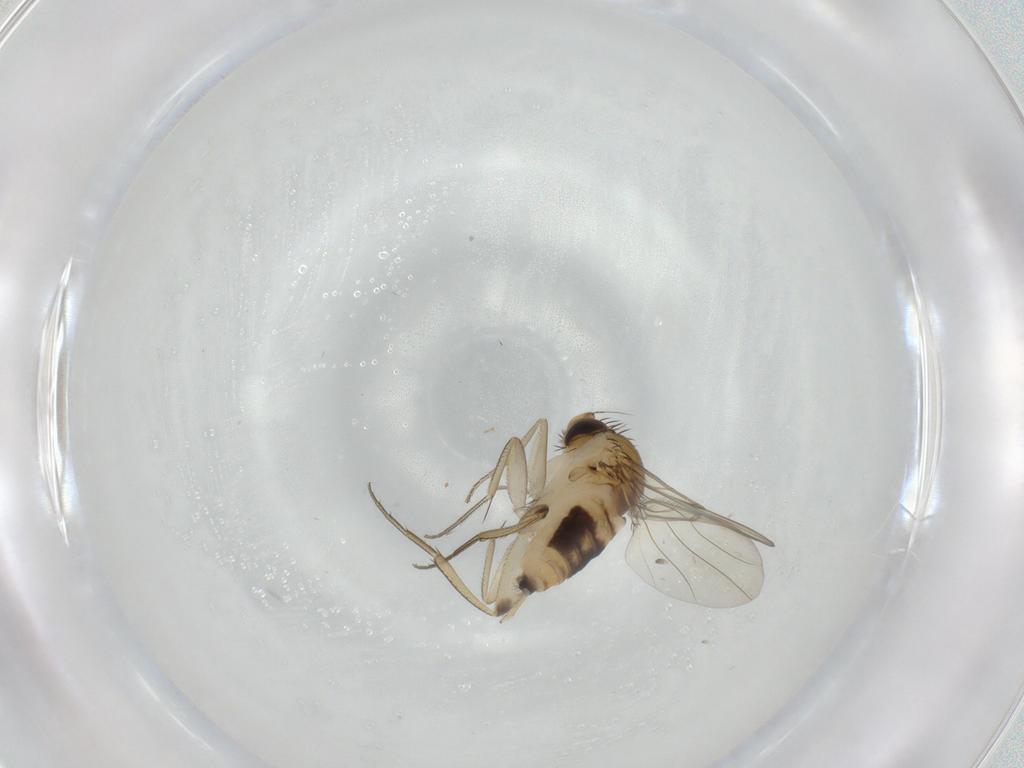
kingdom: Animalia
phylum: Arthropoda
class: Insecta
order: Diptera
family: Phoridae
